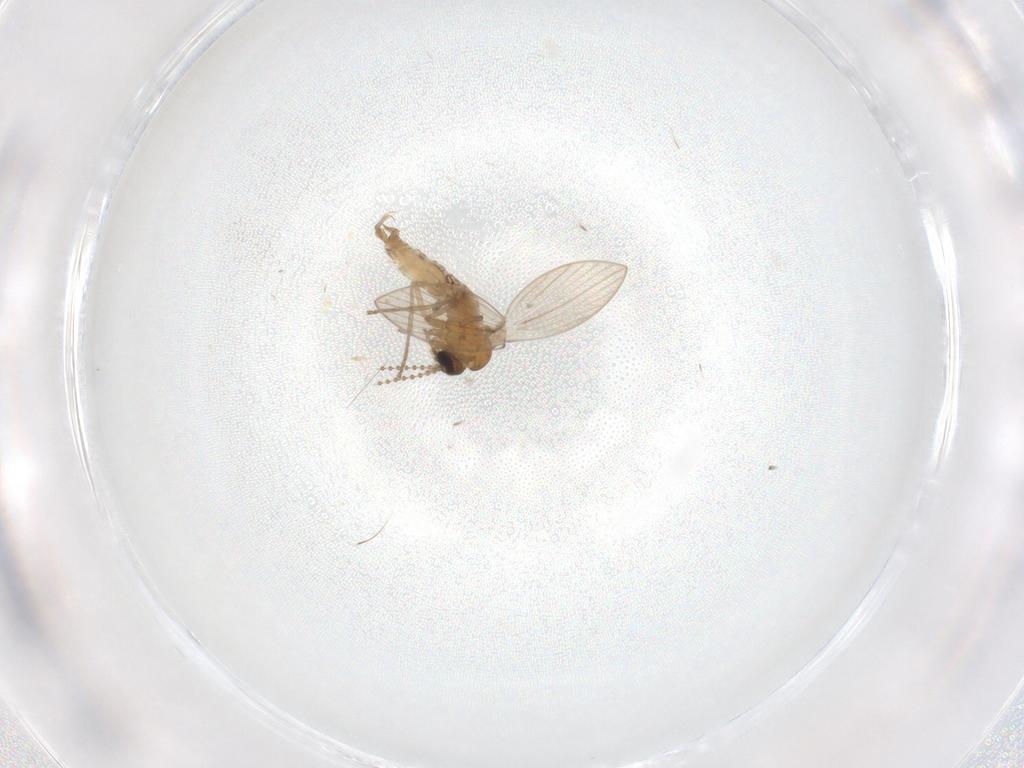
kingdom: Animalia
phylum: Arthropoda
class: Insecta
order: Diptera
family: Psychodidae
